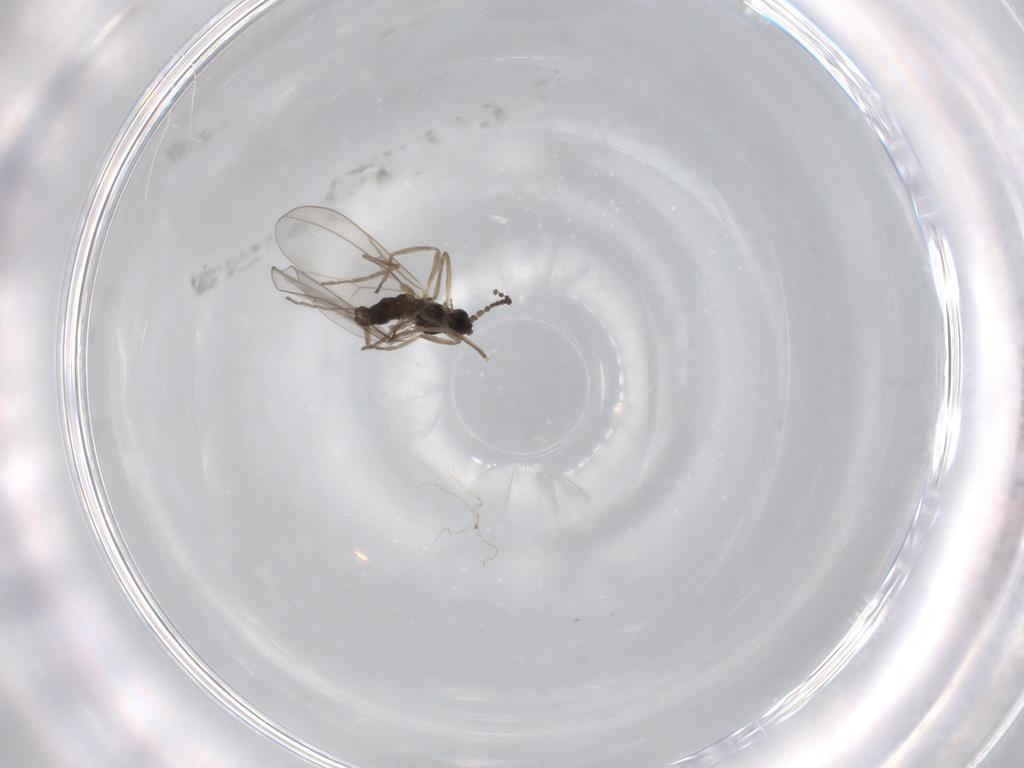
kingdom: Animalia
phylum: Arthropoda
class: Insecta
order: Diptera
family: Cecidomyiidae
